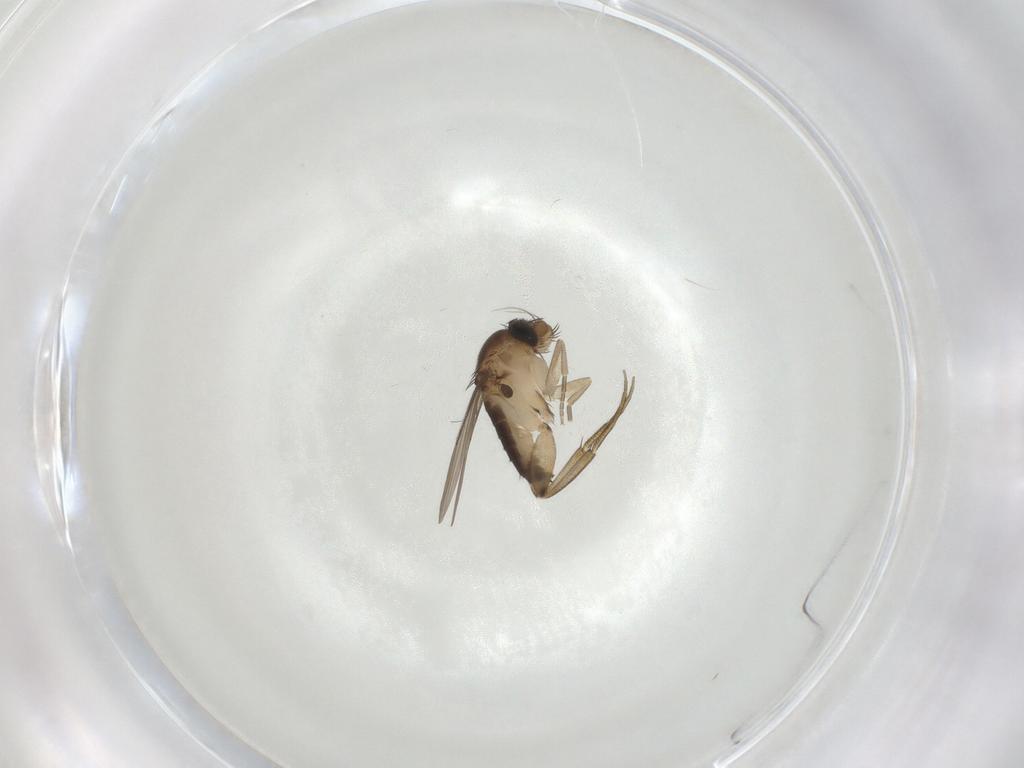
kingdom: Animalia
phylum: Arthropoda
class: Insecta
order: Diptera
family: Phoridae
